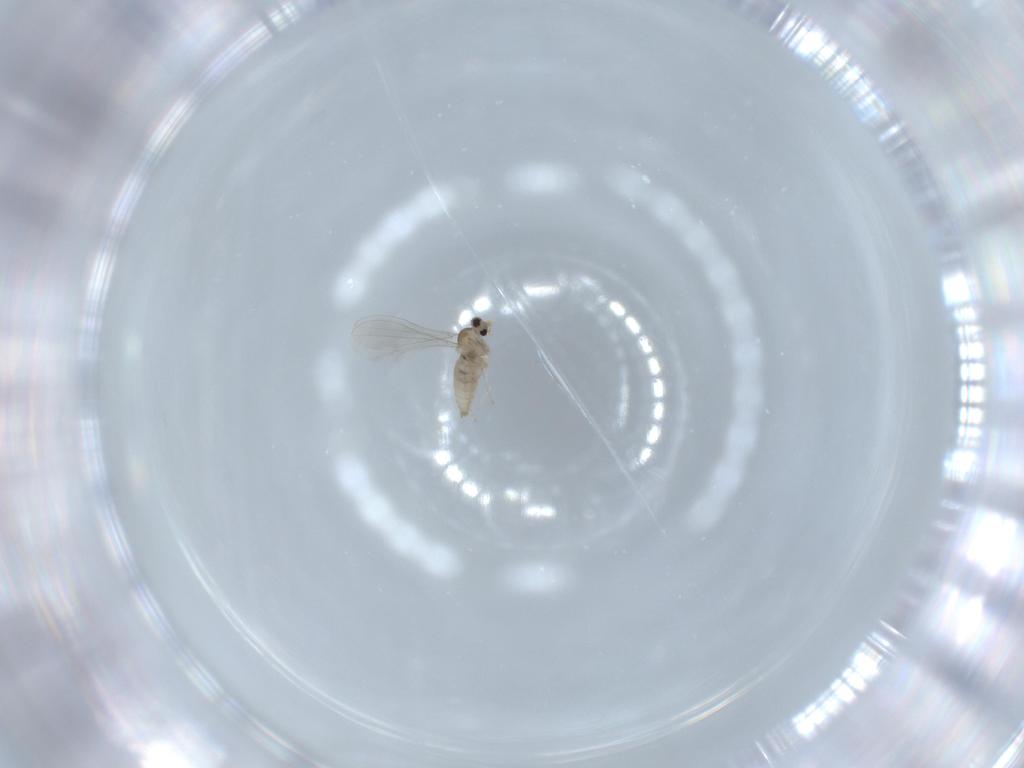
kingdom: Animalia
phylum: Arthropoda
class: Insecta
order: Diptera
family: Cecidomyiidae
